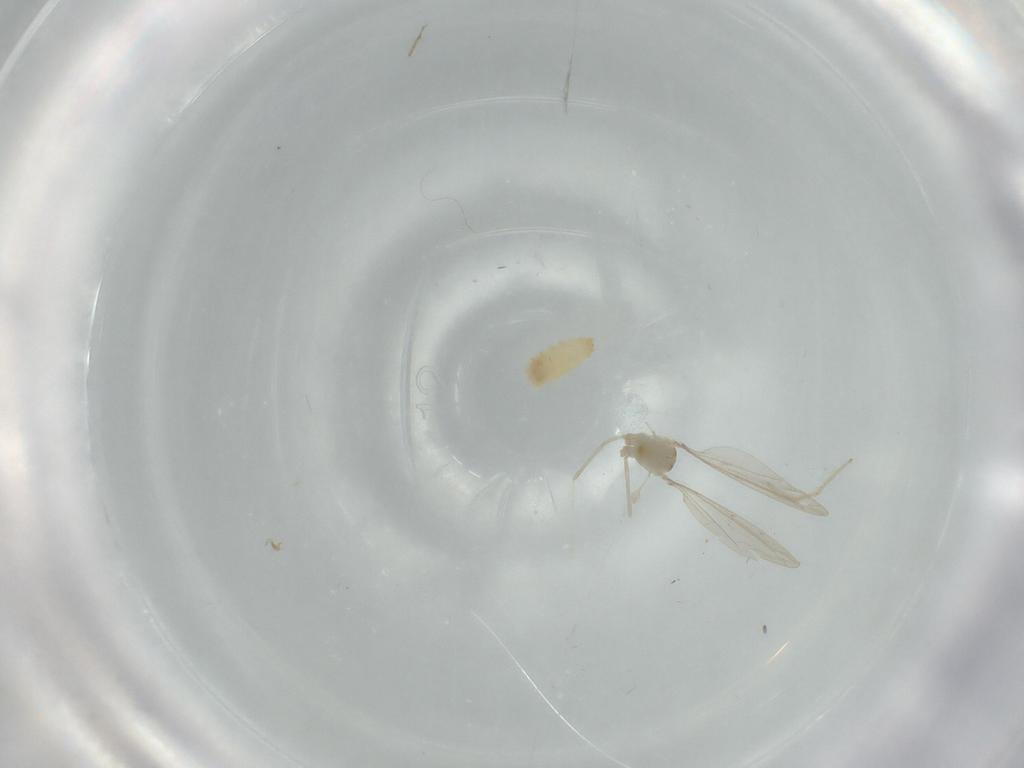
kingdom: Animalia
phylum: Arthropoda
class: Insecta
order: Diptera
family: Cecidomyiidae
